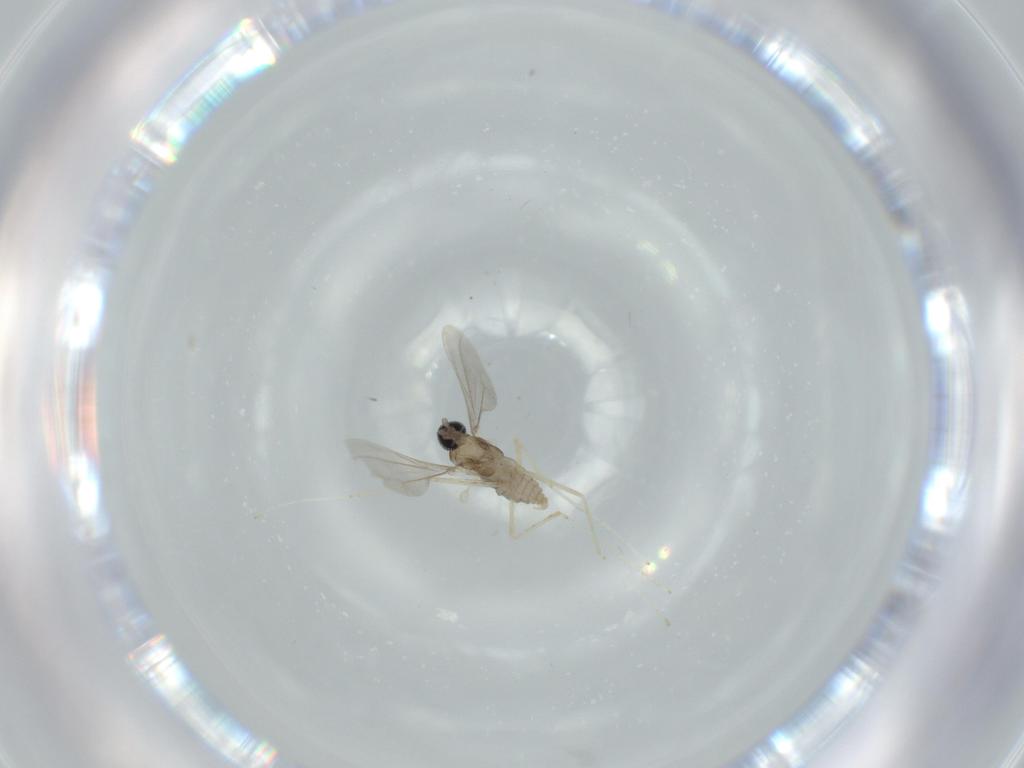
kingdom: Animalia
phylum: Arthropoda
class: Insecta
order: Diptera
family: Cecidomyiidae
